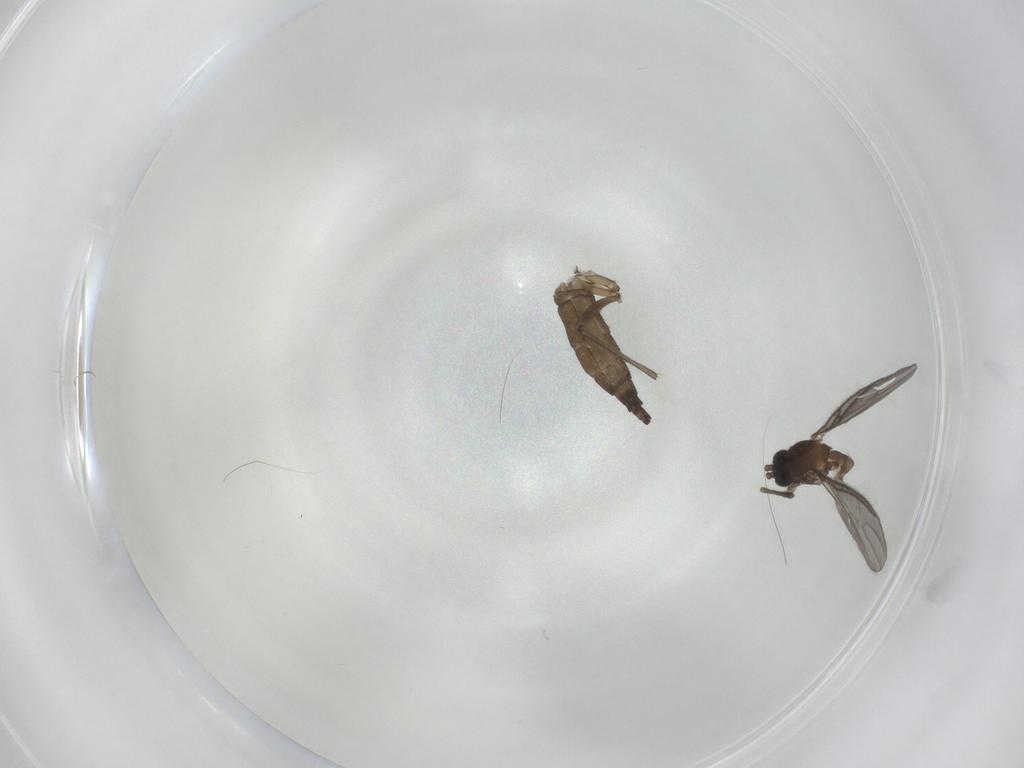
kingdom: Animalia
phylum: Arthropoda
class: Insecta
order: Diptera
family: Sciaridae
